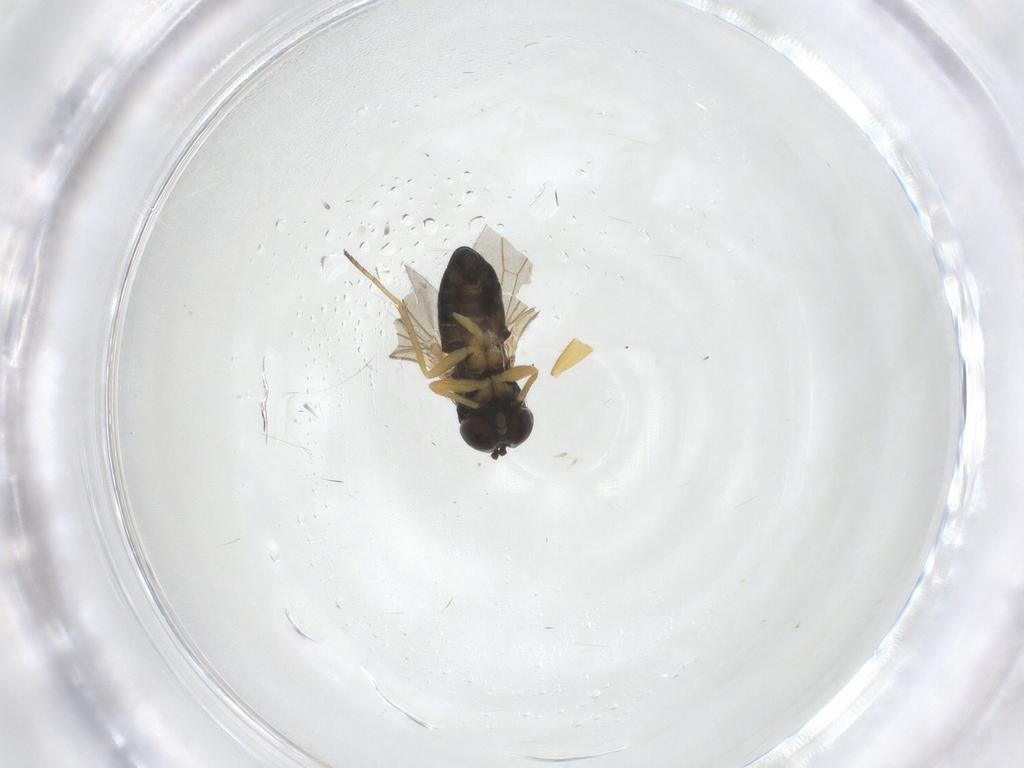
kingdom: Animalia
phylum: Arthropoda
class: Insecta
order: Diptera
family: Dolichopodidae
